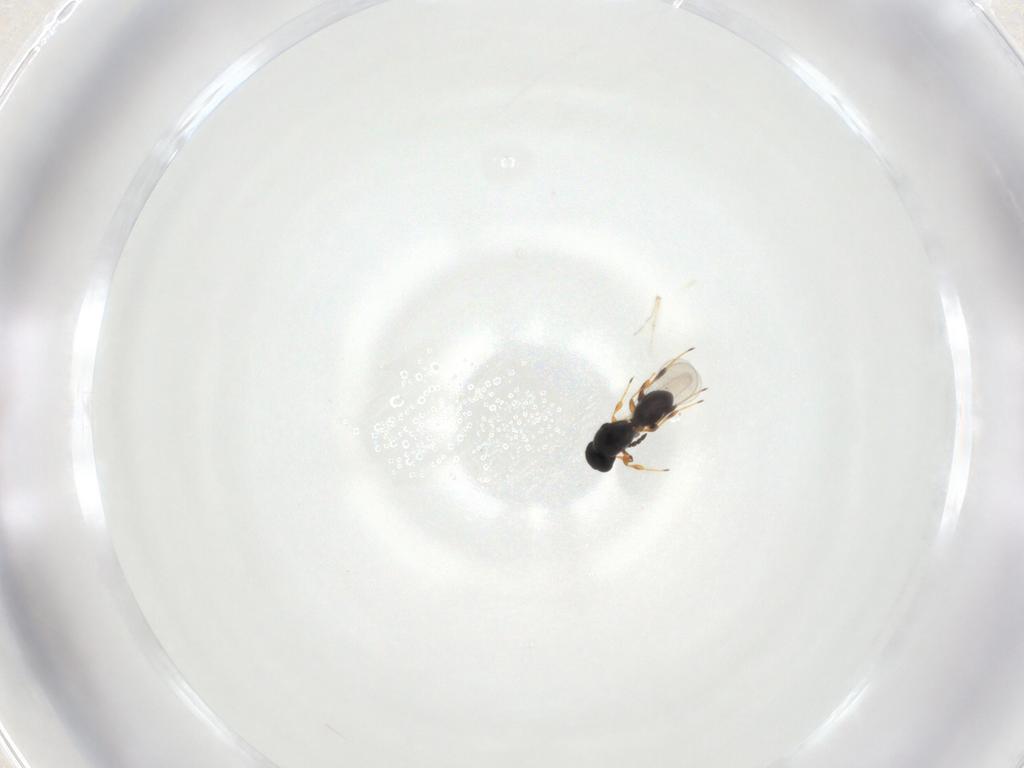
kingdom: Animalia
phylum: Arthropoda
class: Insecta
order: Hymenoptera
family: Platygastridae
